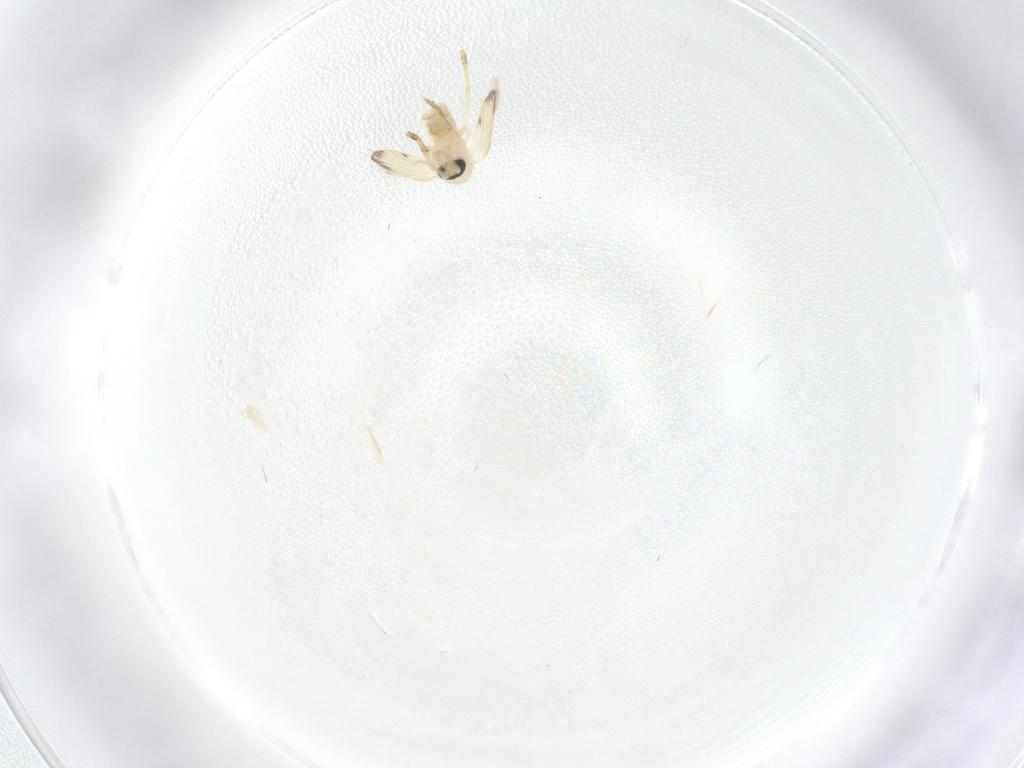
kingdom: Animalia
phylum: Arthropoda
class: Insecta
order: Diptera
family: Psychodidae
